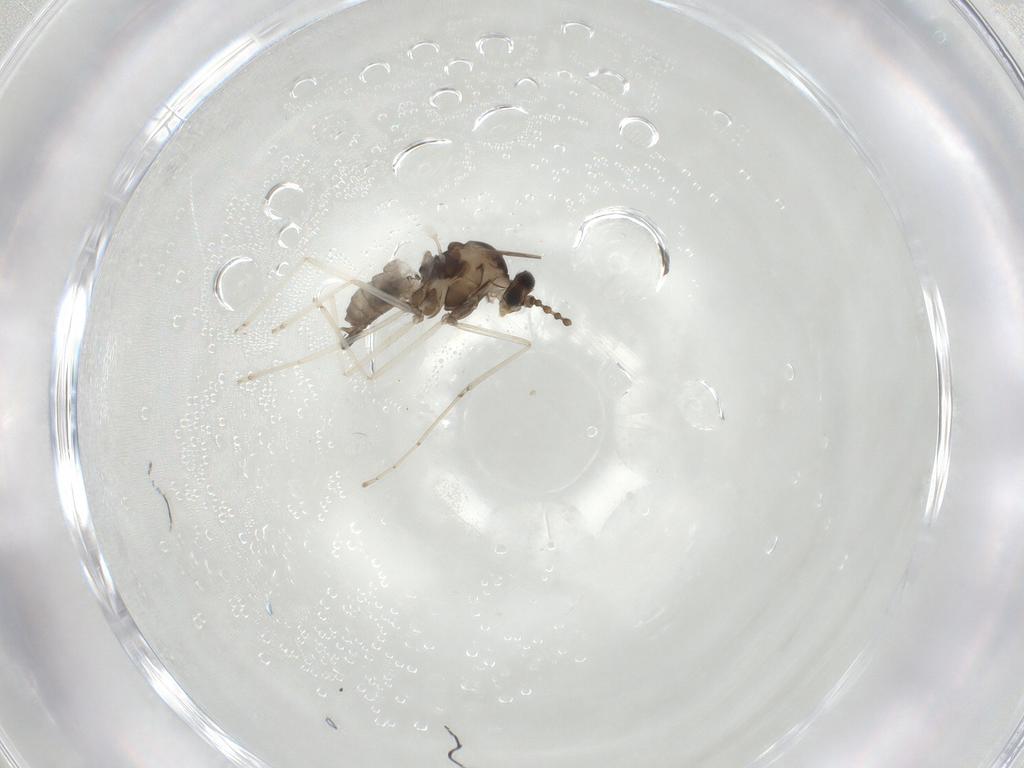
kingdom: Animalia
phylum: Arthropoda
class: Insecta
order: Diptera
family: Cecidomyiidae
